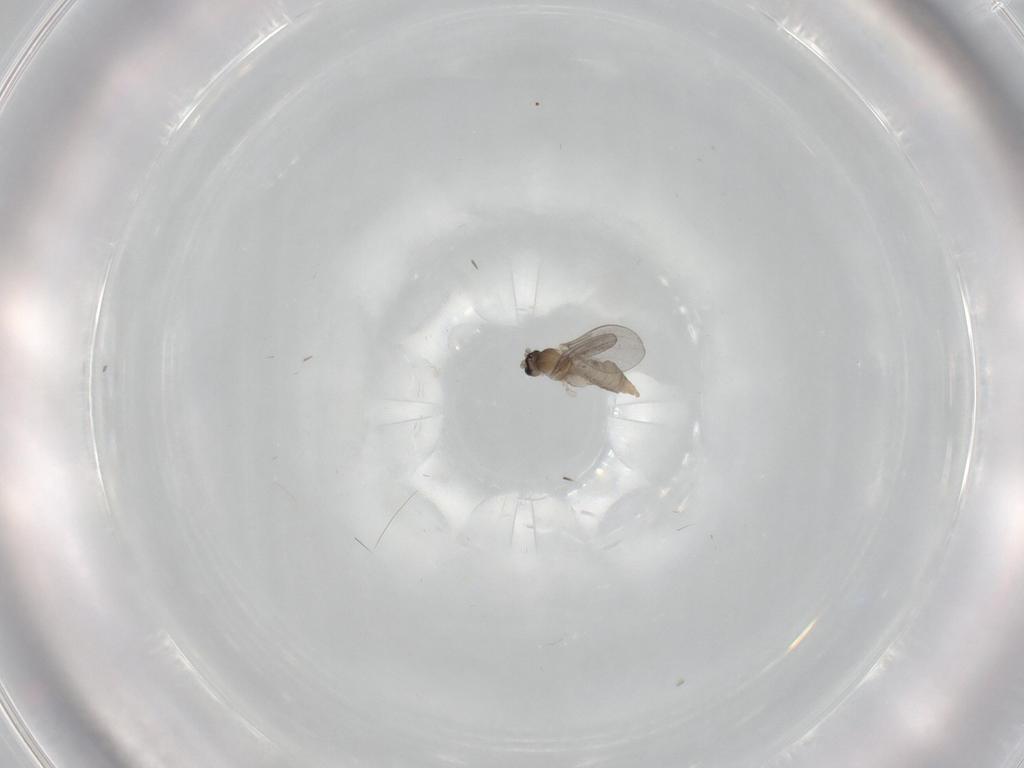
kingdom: Animalia
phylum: Arthropoda
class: Insecta
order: Diptera
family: Cecidomyiidae
